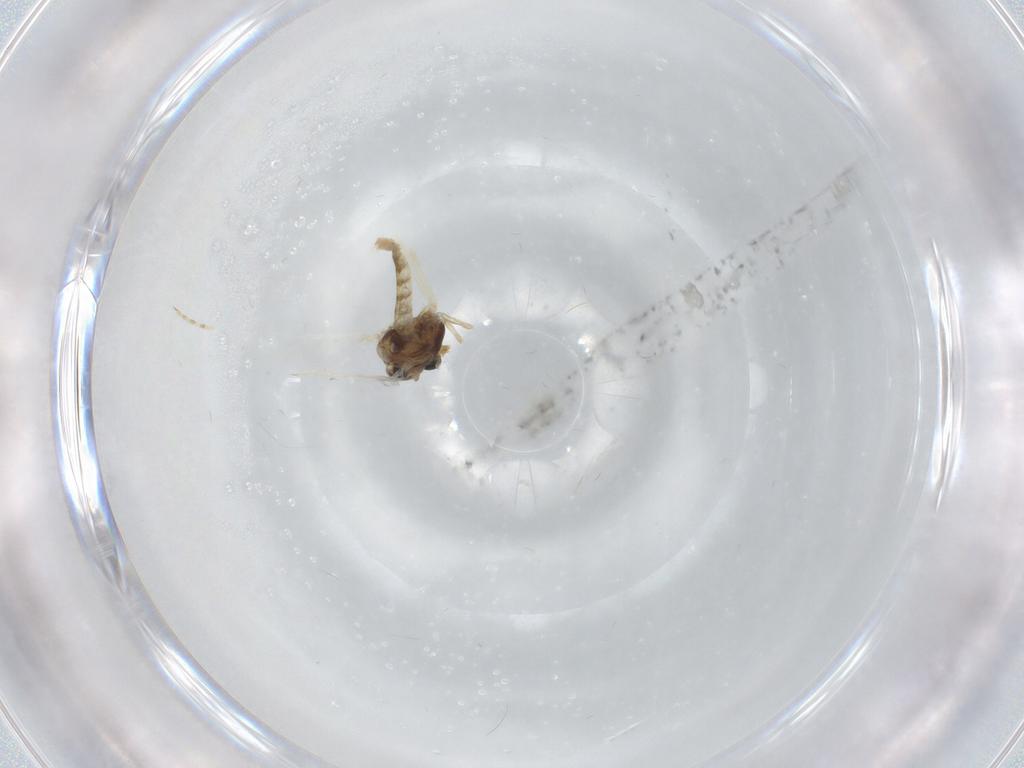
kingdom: Animalia
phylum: Arthropoda
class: Insecta
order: Diptera
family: Chironomidae
